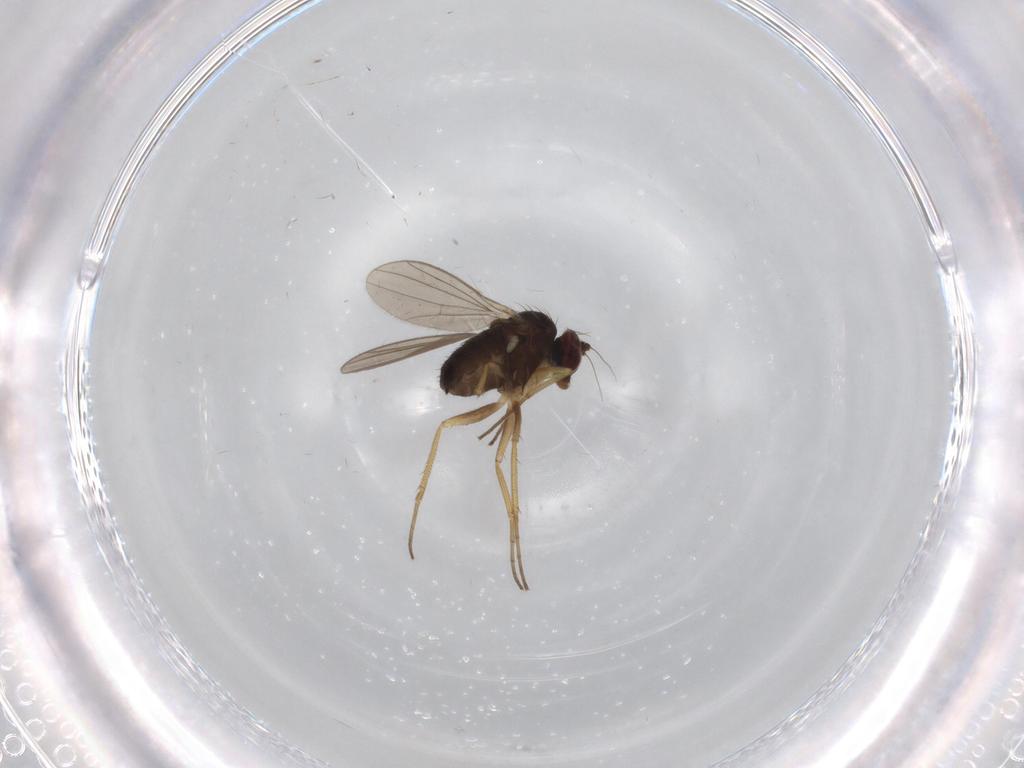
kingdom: Animalia
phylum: Arthropoda
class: Insecta
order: Diptera
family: Dolichopodidae
